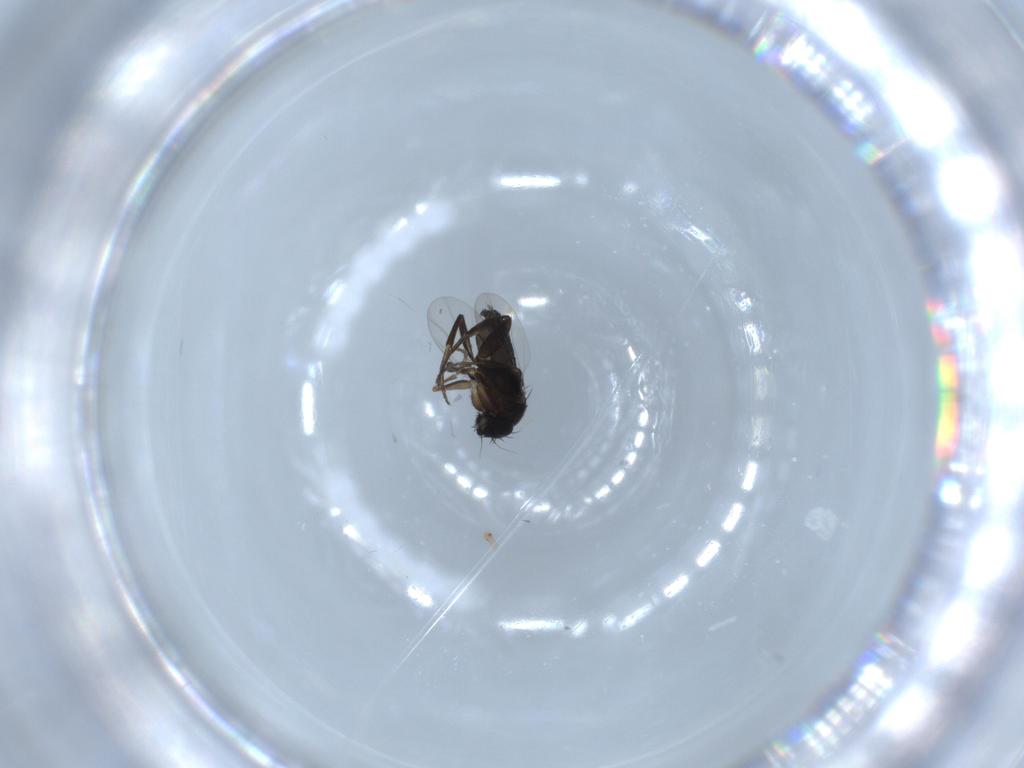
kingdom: Animalia
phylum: Arthropoda
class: Insecta
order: Diptera
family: Phoridae
